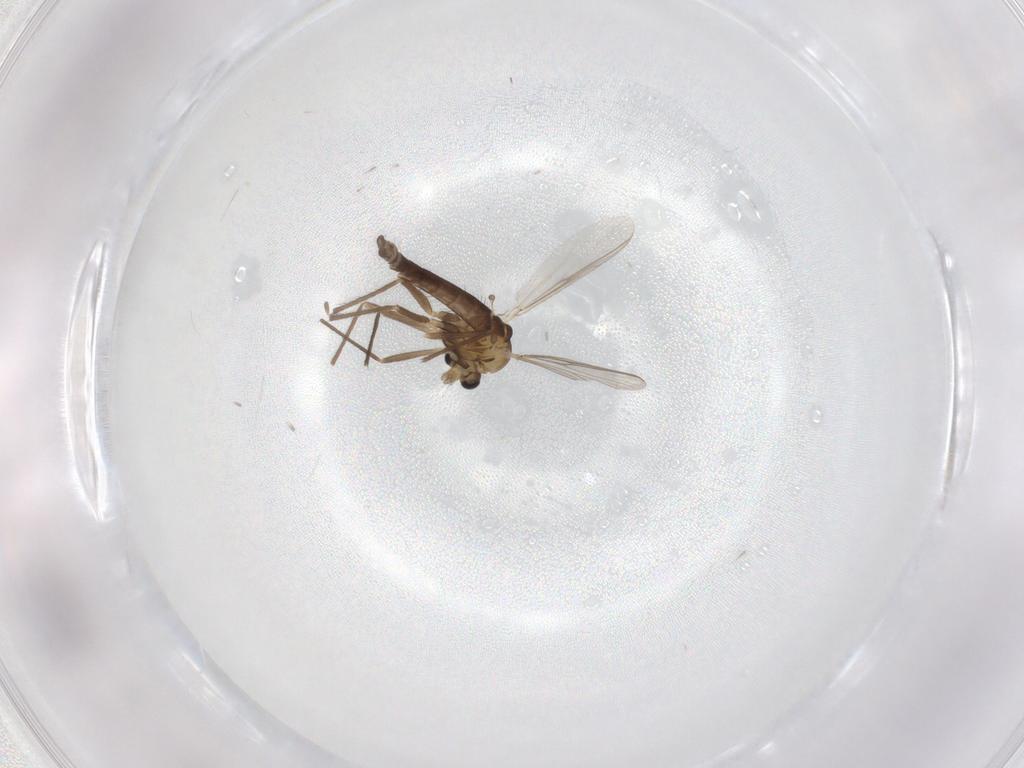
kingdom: Animalia
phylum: Arthropoda
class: Insecta
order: Diptera
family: Chironomidae
